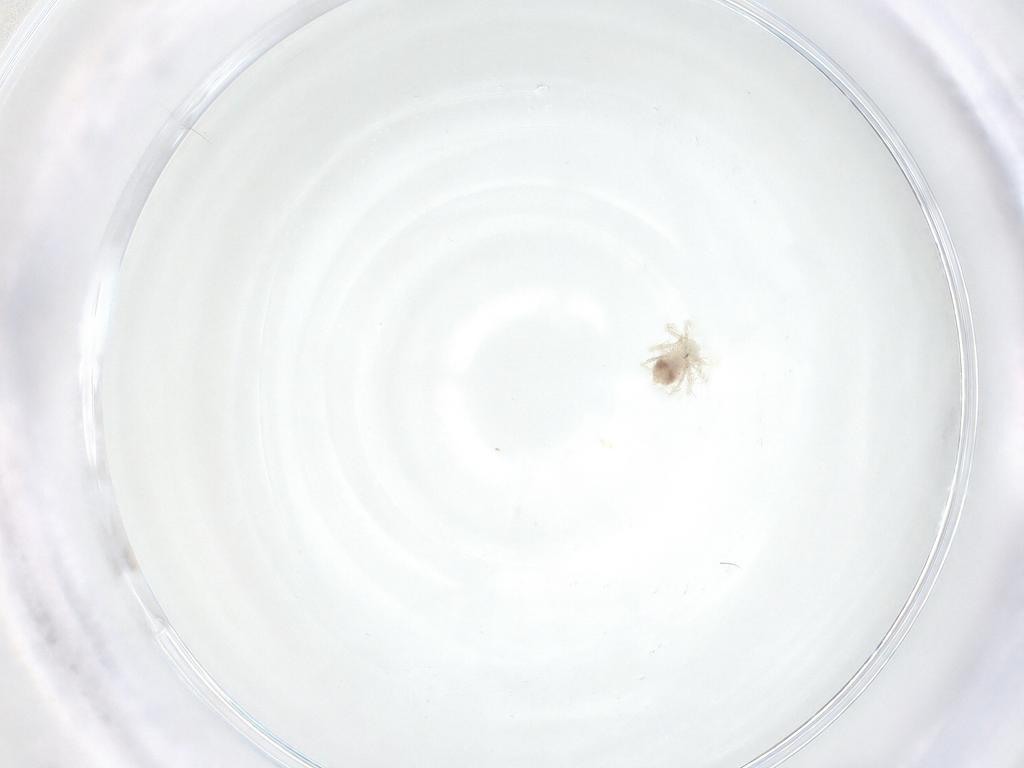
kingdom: Animalia
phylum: Arthropoda
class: Arachnida
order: Trombidiformes
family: Anystidae
